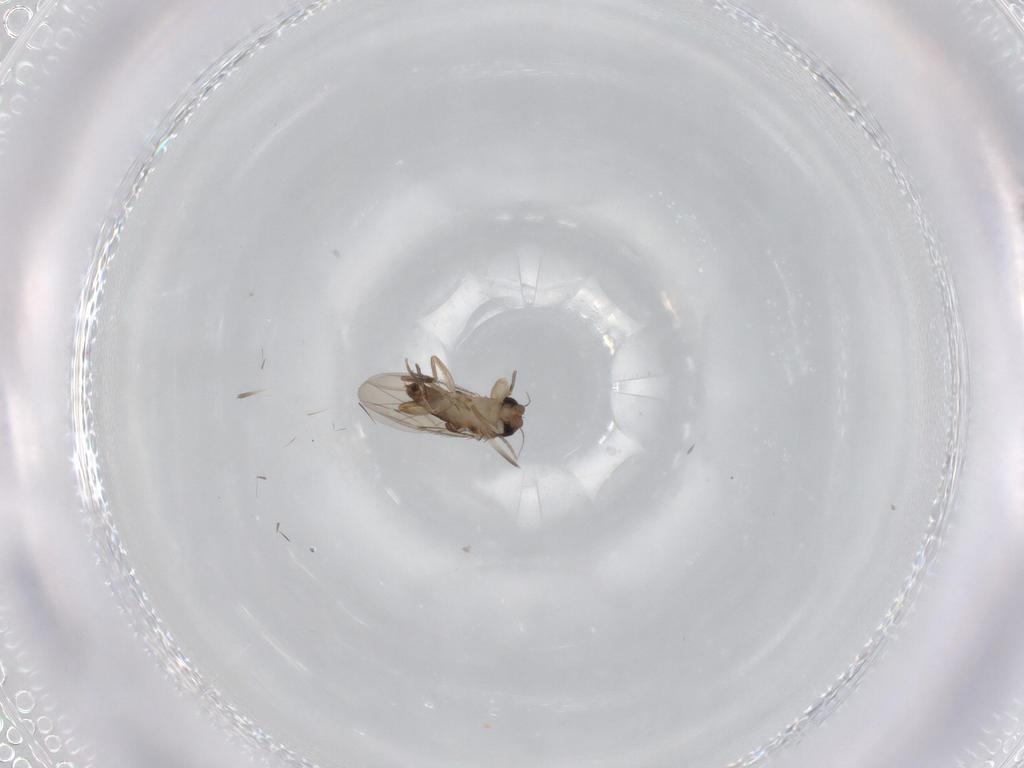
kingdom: Animalia
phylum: Arthropoda
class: Insecta
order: Diptera
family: Phoridae
